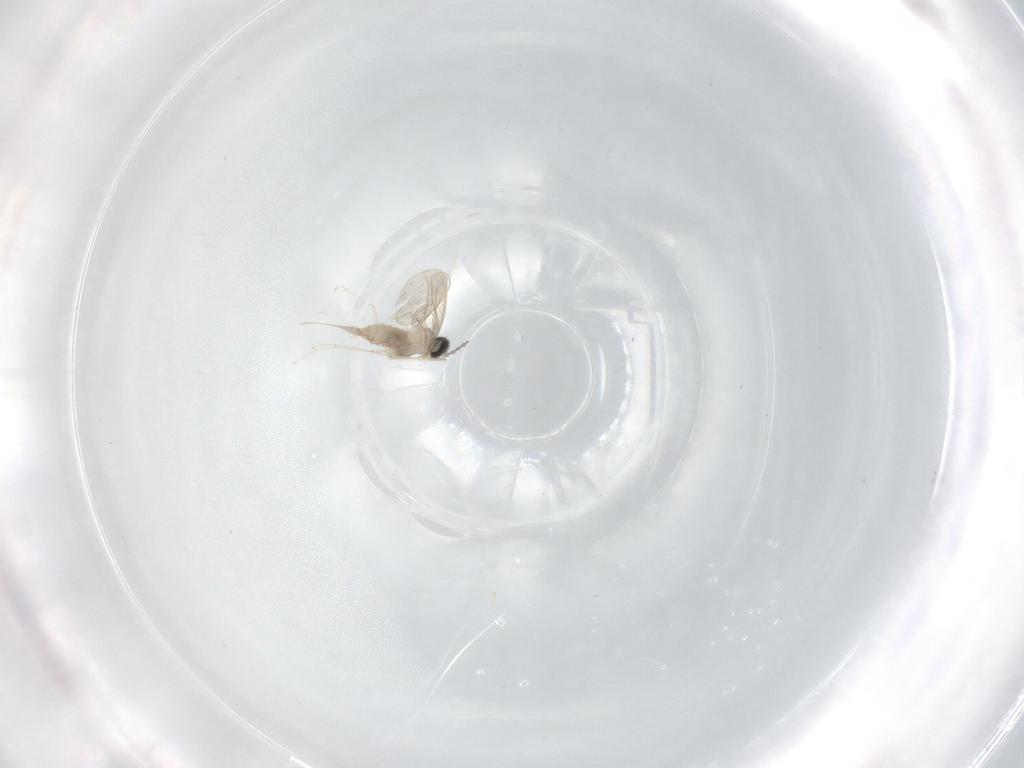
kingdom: Animalia
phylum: Arthropoda
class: Insecta
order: Diptera
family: Cecidomyiidae
